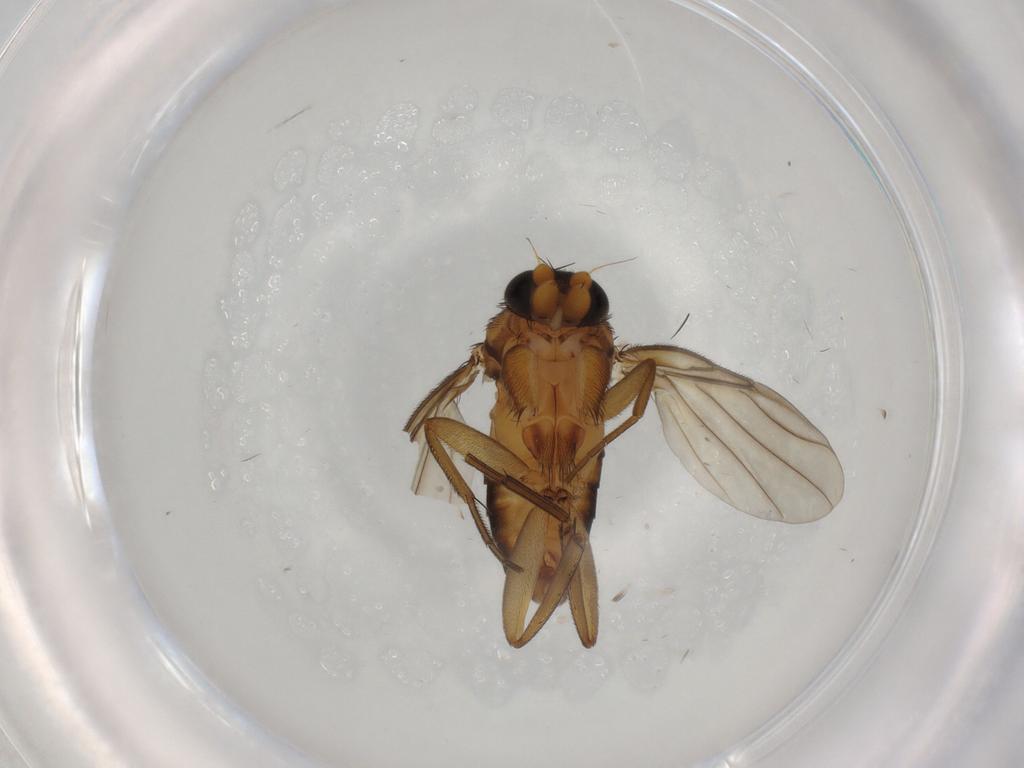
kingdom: Animalia
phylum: Arthropoda
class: Insecta
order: Diptera
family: Phoridae
